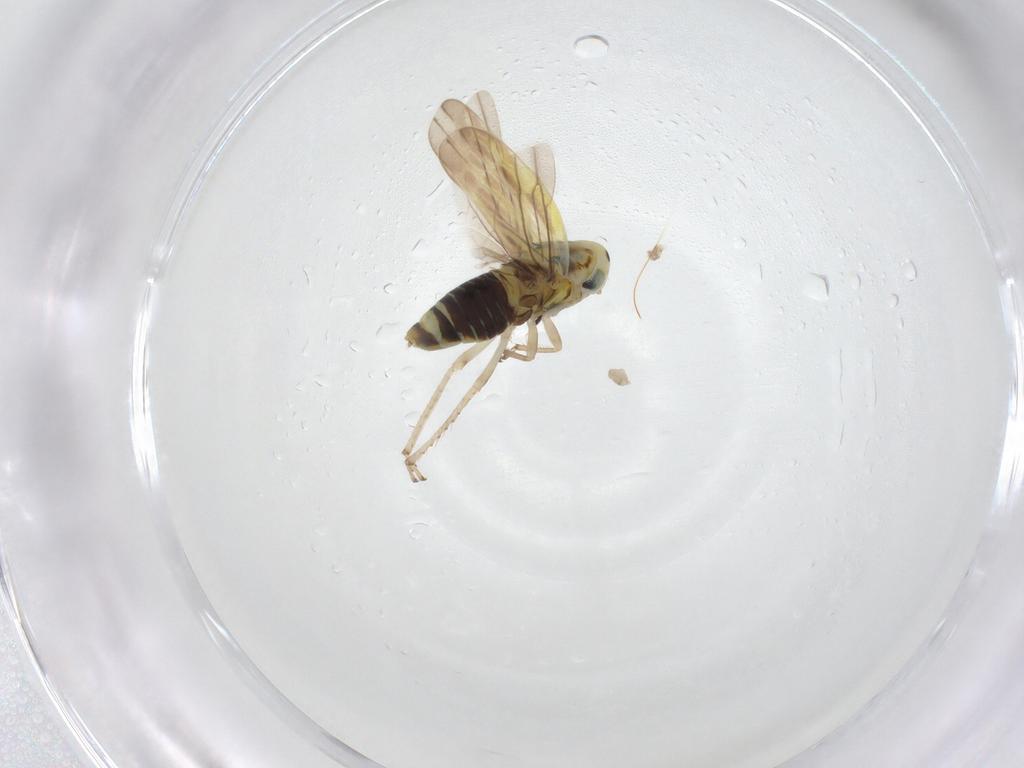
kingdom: Animalia
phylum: Arthropoda
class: Insecta
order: Hemiptera
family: Cicadellidae
